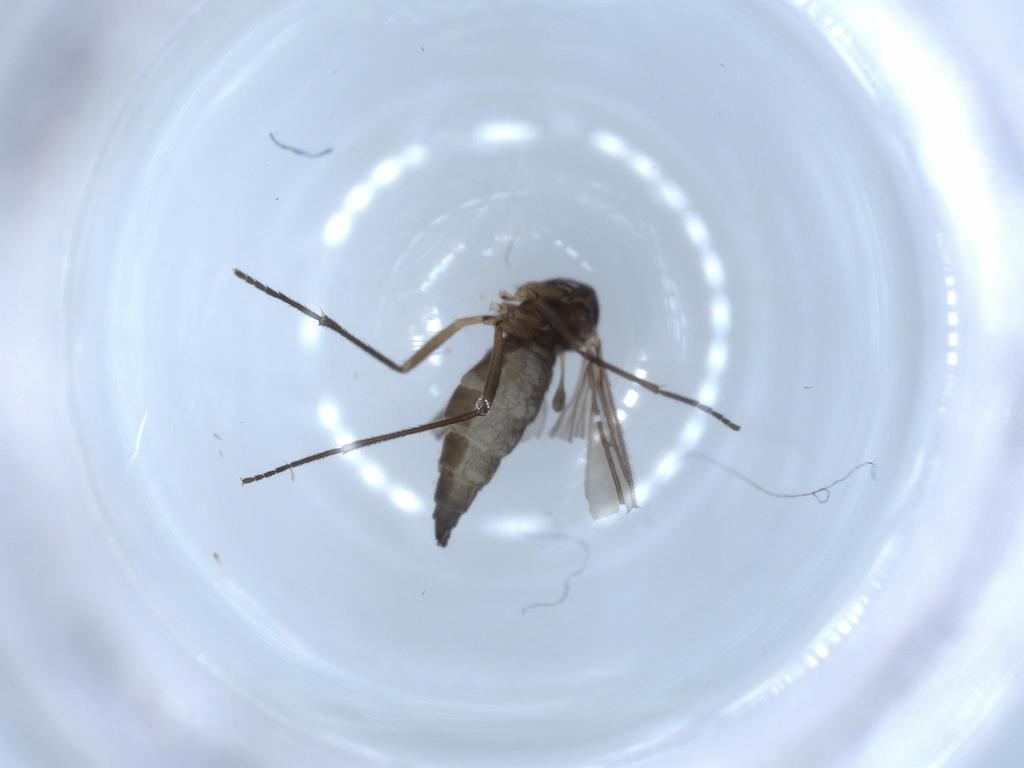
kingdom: Animalia
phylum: Arthropoda
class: Insecta
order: Diptera
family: Sciaridae
